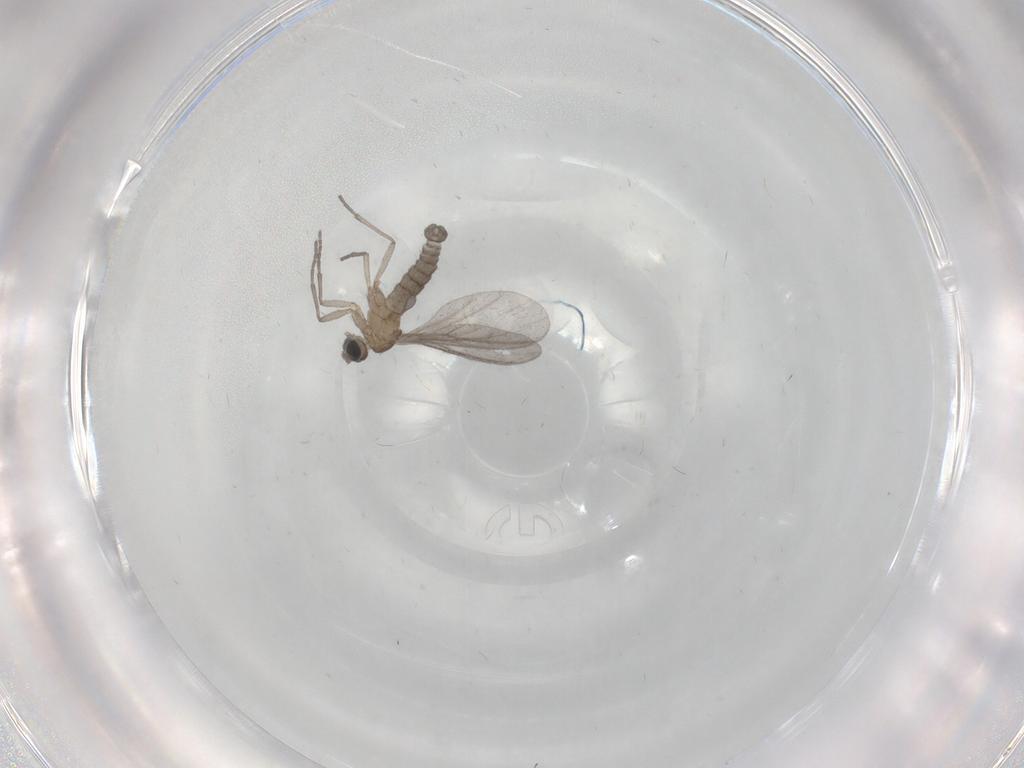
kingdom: Animalia
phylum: Arthropoda
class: Insecta
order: Diptera
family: Sciaridae
